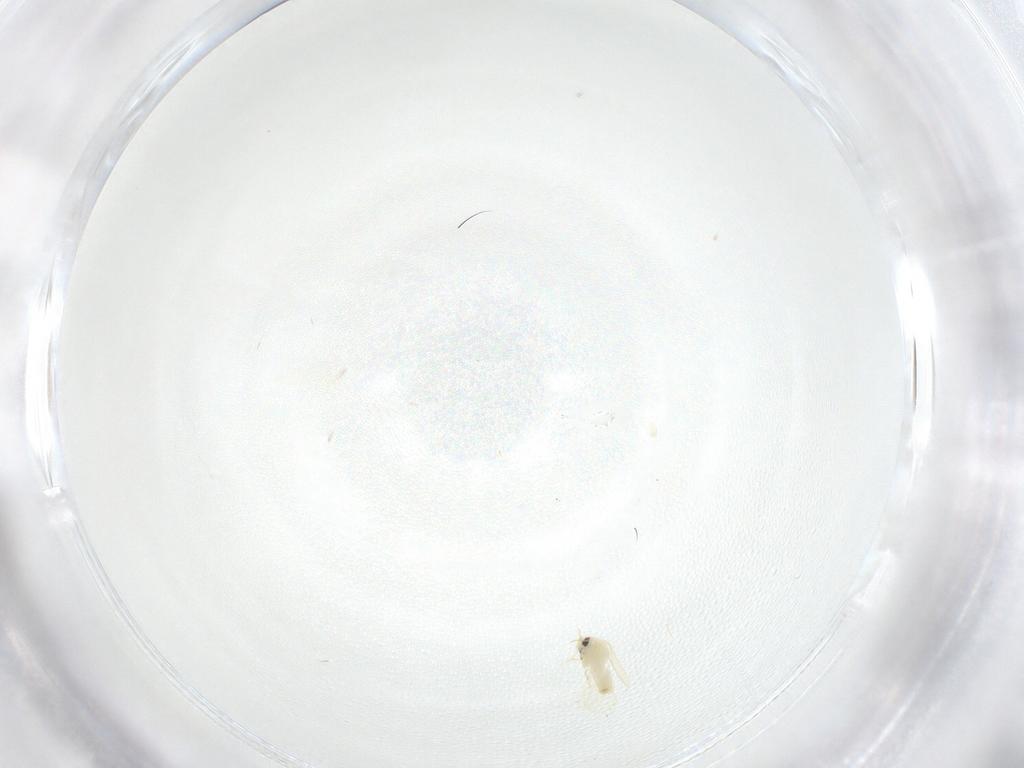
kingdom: Animalia
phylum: Arthropoda
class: Insecta
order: Hemiptera
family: Aleyrodidae
